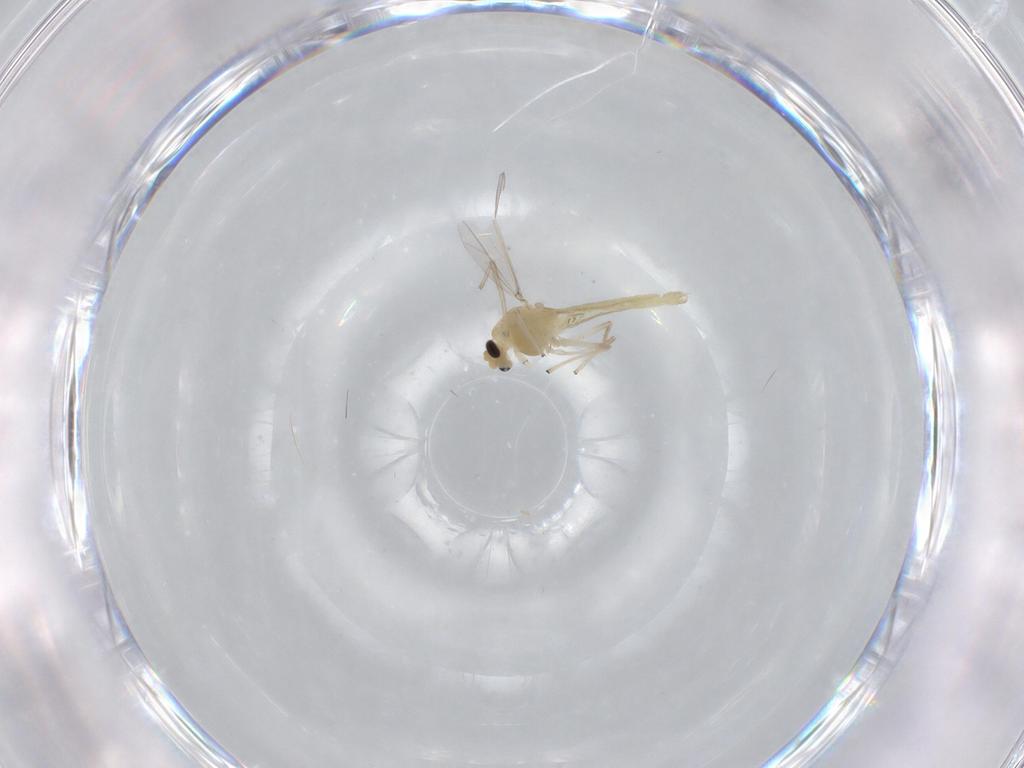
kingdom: Animalia
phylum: Arthropoda
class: Insecta
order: Diptera
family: Chironomidae
